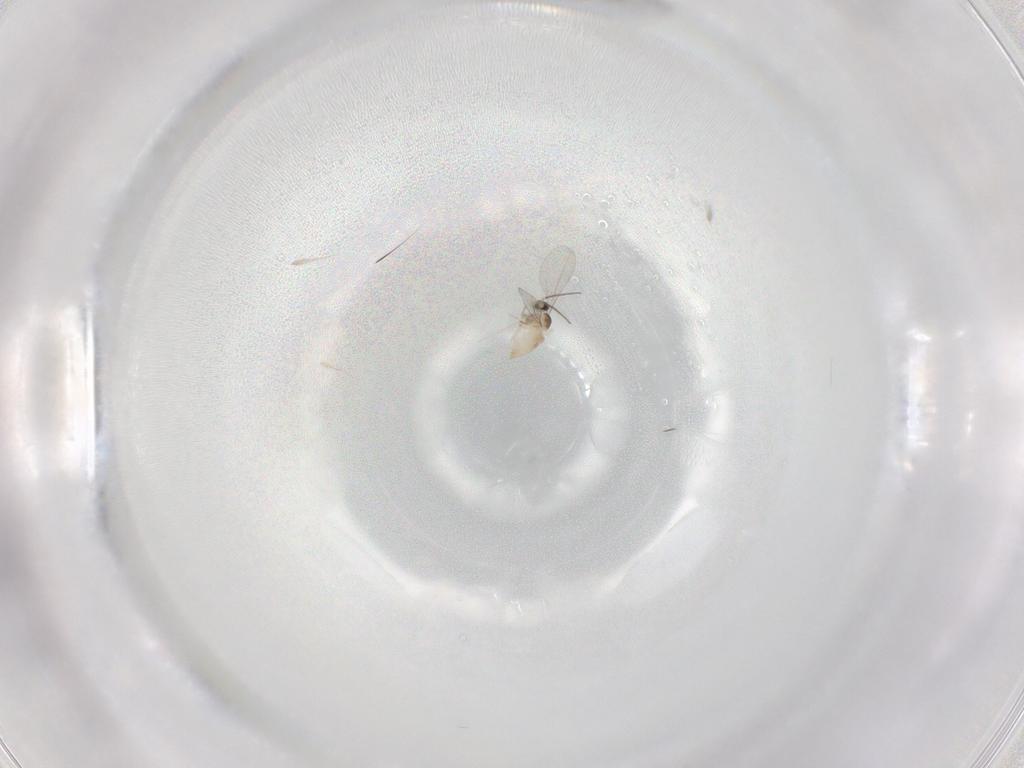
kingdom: Animalia
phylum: Arthropoda
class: Insecta
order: Diptera
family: Cecidomyiidae
